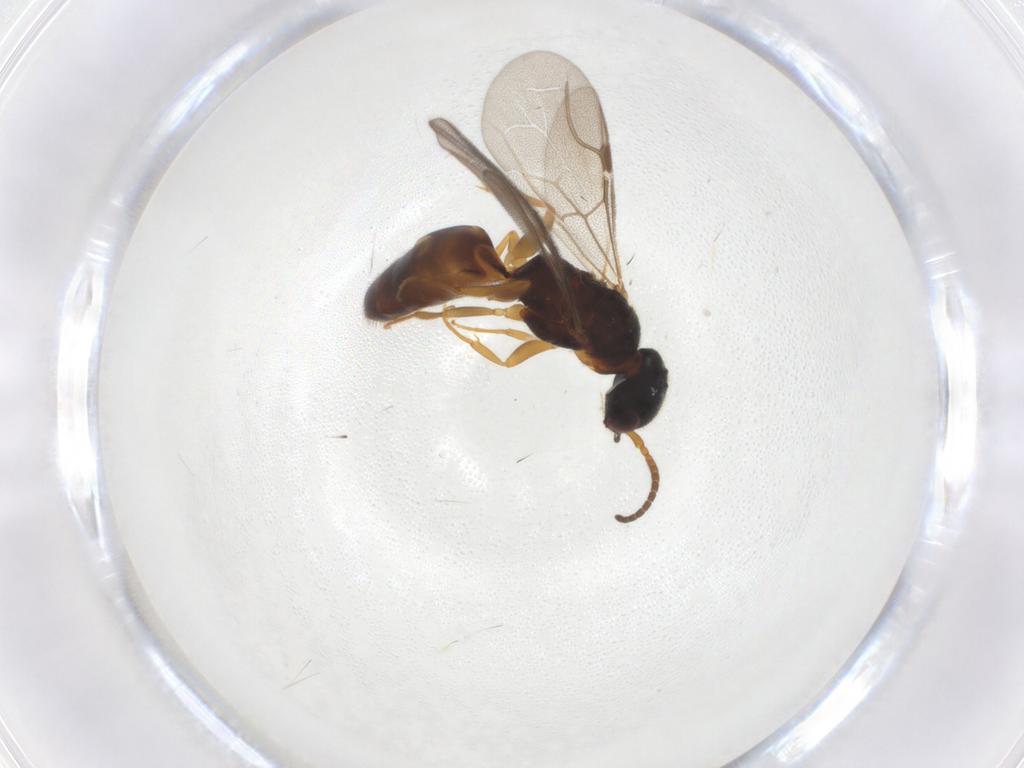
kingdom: Animalia
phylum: Arthropoda
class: Insecta
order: Hymenoptera
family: Bethylidae
